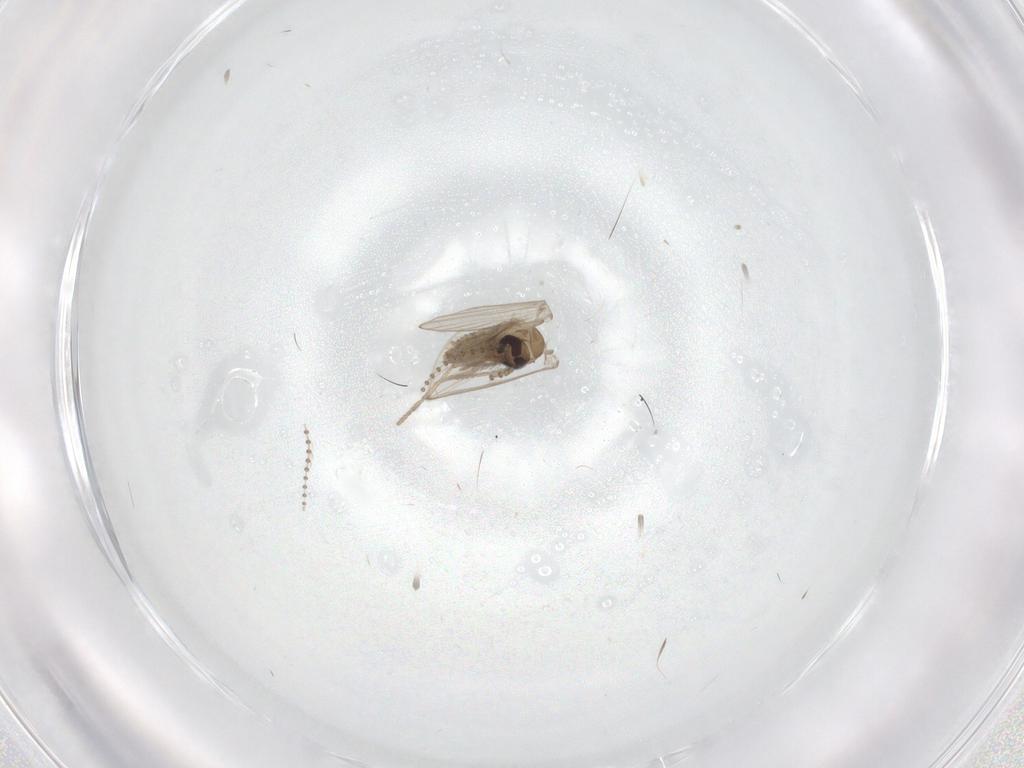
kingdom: Animalia
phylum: Arthropoda
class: Insecta
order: Diptera
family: Psychodidae
